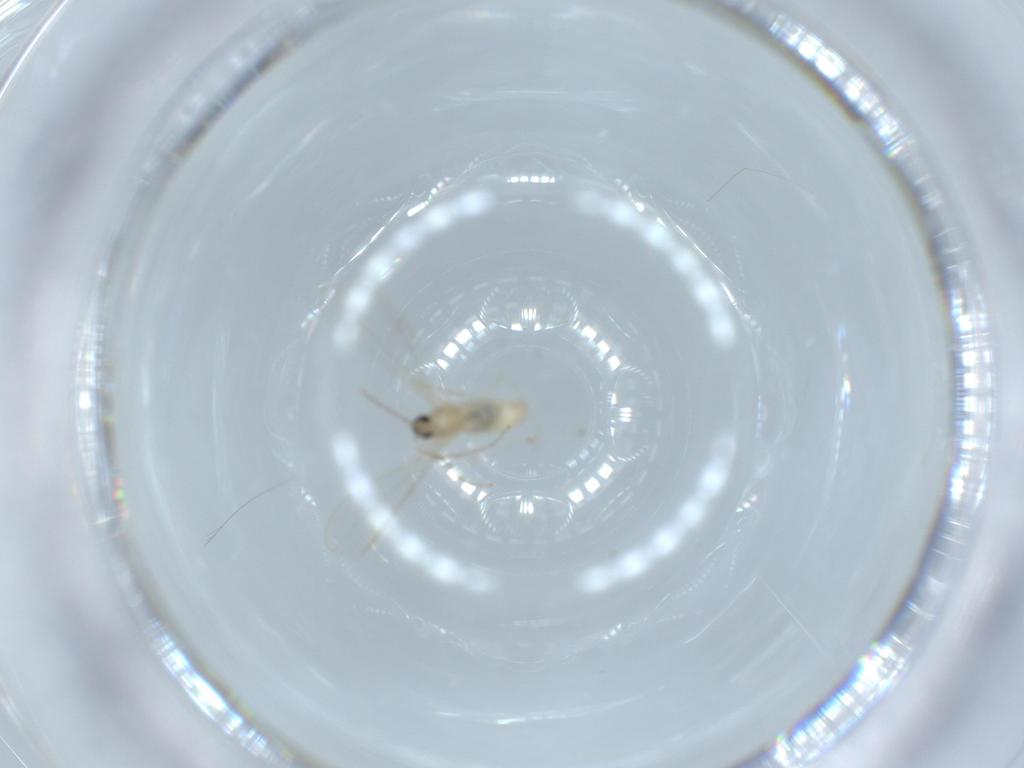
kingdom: Animalia
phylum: Arthropoda
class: Insecta
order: Diptera
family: Cecidomyiidae
